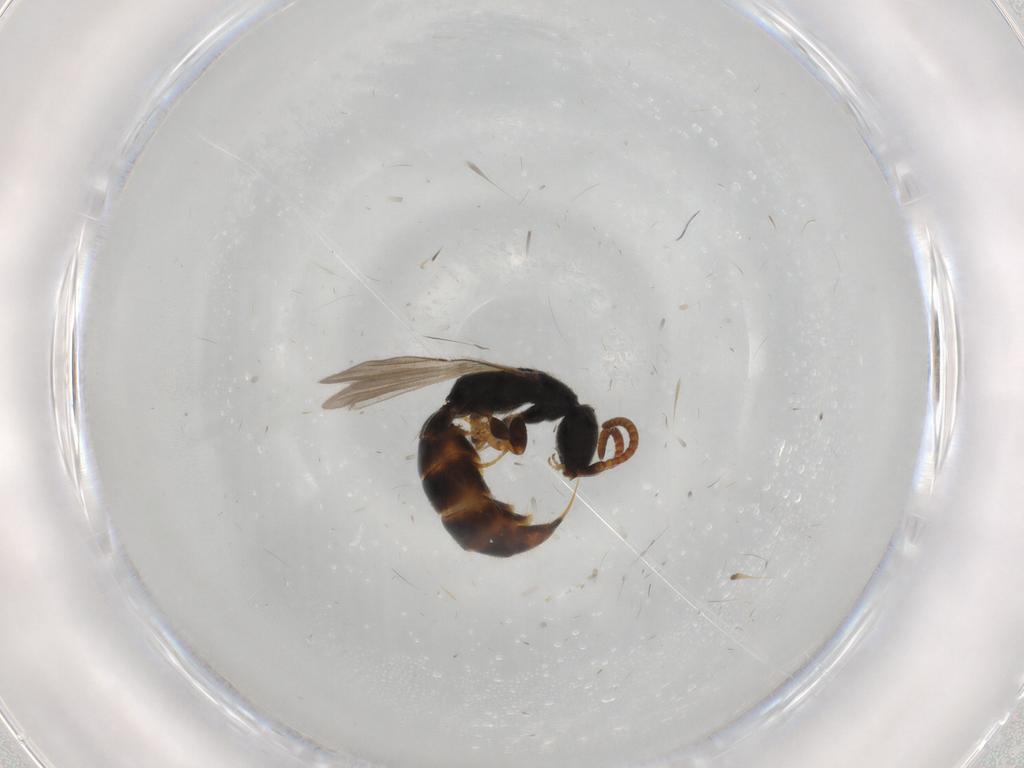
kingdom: Animalia
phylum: Arthropoda
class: Insecta
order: Hymenoptera
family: Bethylidae
